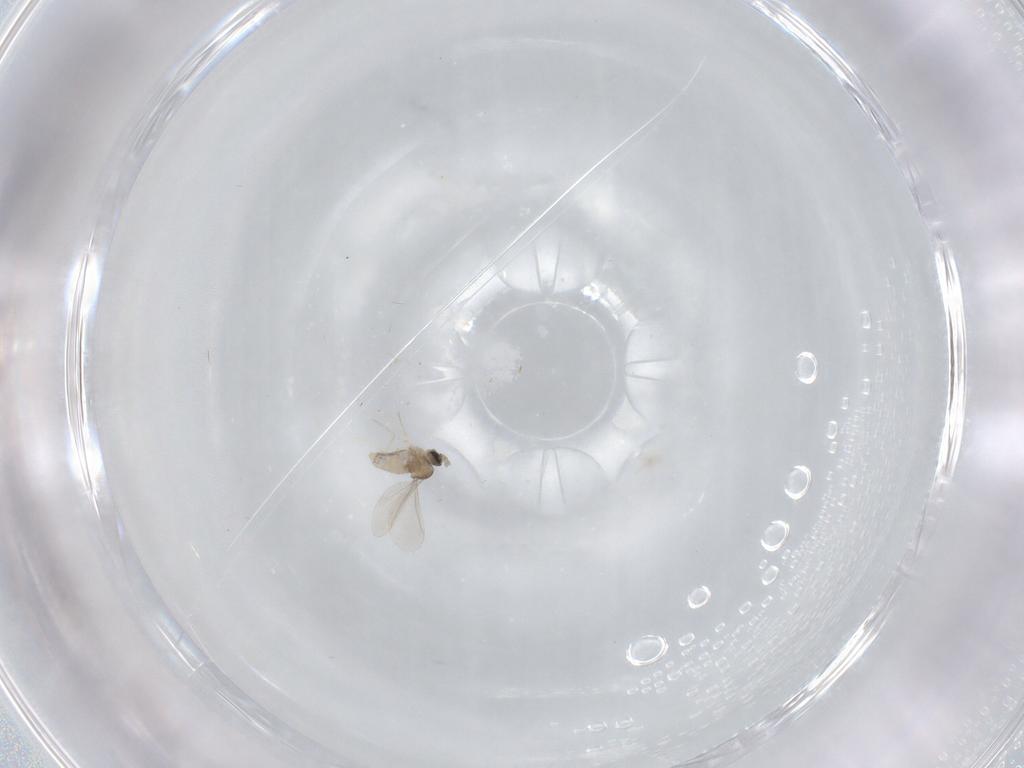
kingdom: Animalia
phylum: Arthropoda
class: Insecta
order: Diptera
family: Cecidomyiidae
